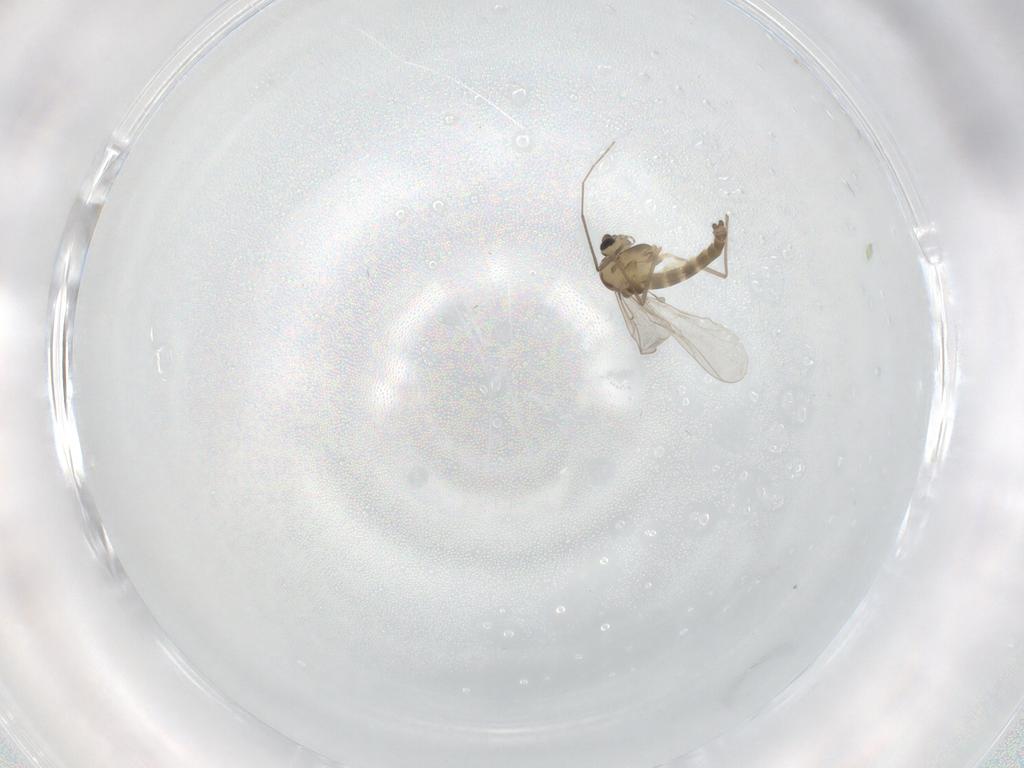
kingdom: Animalia
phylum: Arthropoda
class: Insecta
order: Diptera
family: Chironomidae
